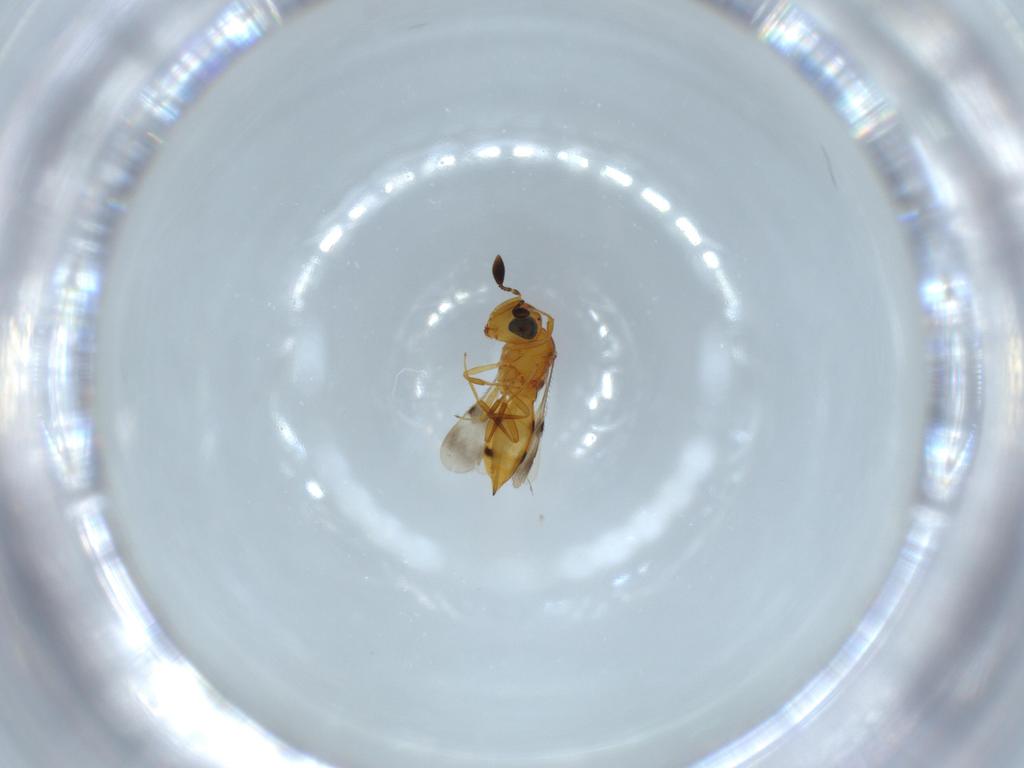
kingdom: Animalia
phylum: Arthropoda
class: Insecta
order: Hymenoptera
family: Scelionidae
